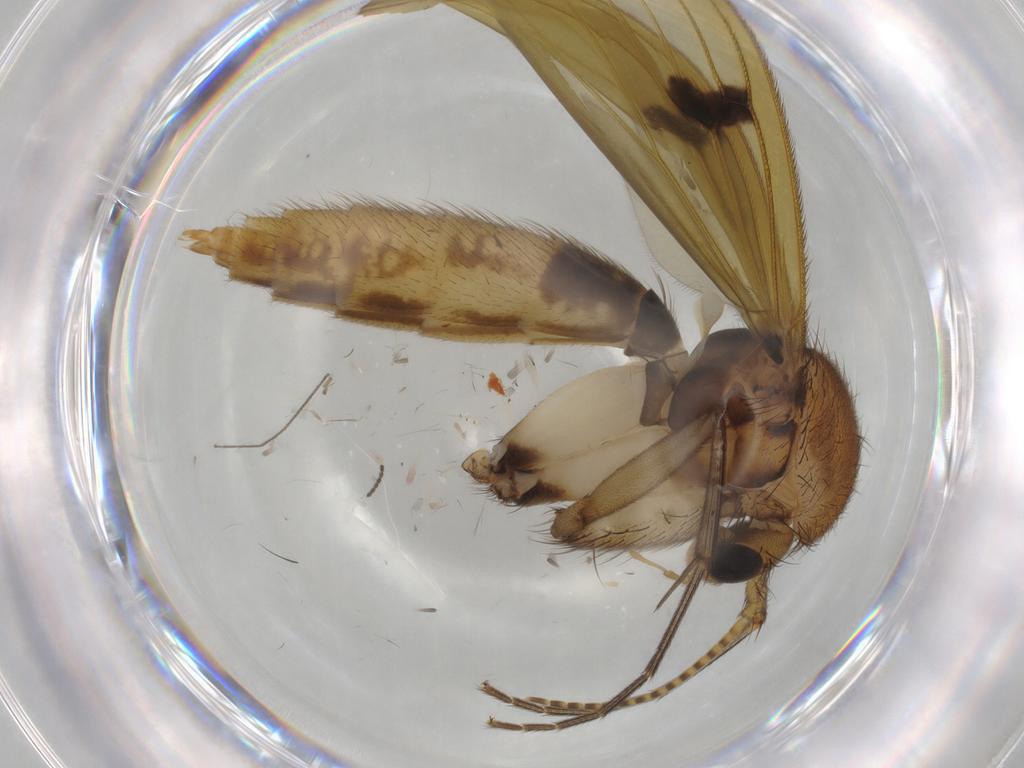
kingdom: Animalia
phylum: Arthropoda
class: Insecta
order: Diptera
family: Mycetophilidae
